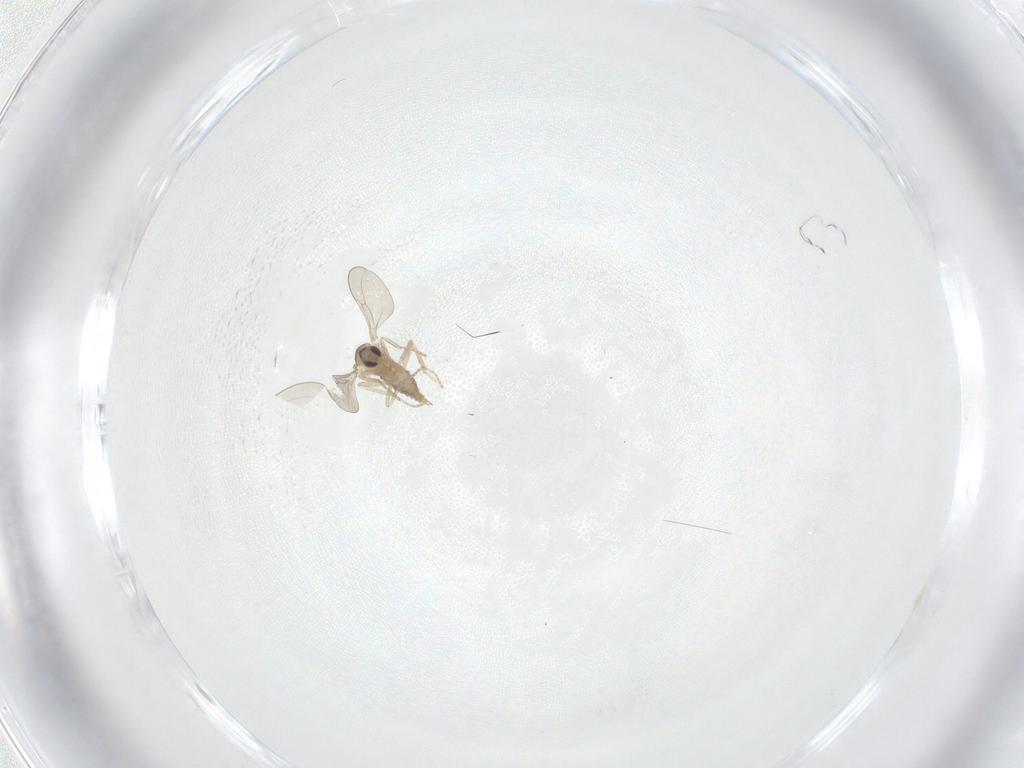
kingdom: Animalia
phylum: Arthropoda
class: Insecta
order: Diptera
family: Cecidomyiidae
